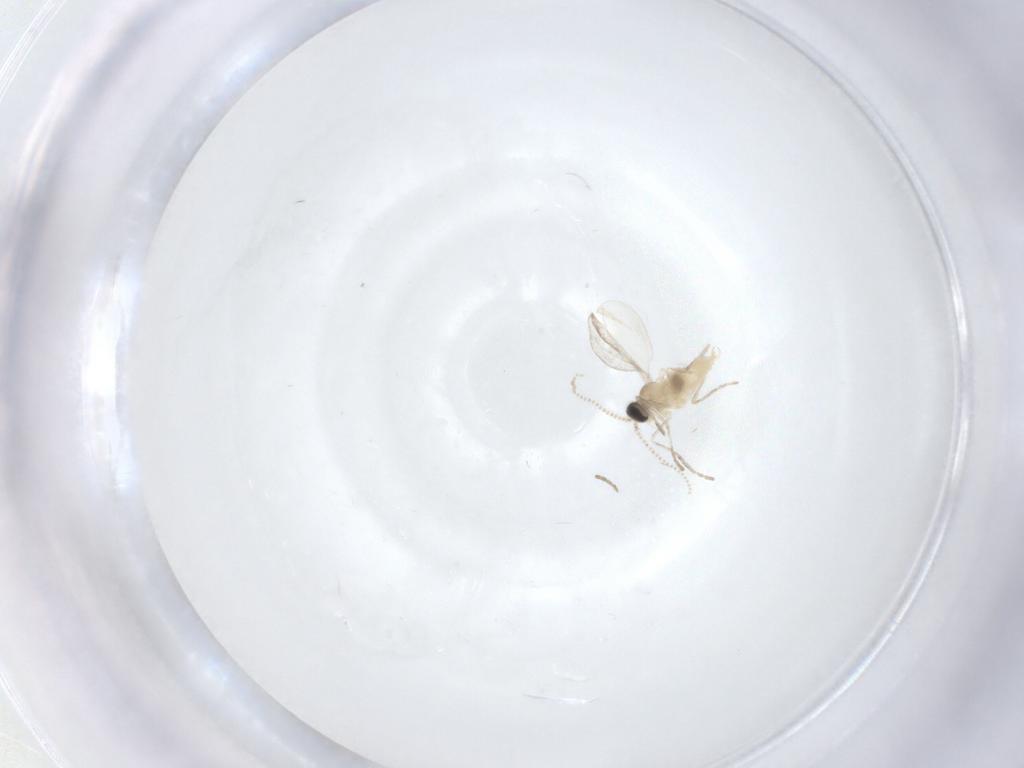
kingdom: Animalia
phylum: Arthropoda
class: Insecta
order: Diptera
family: Cecidomyiidae
